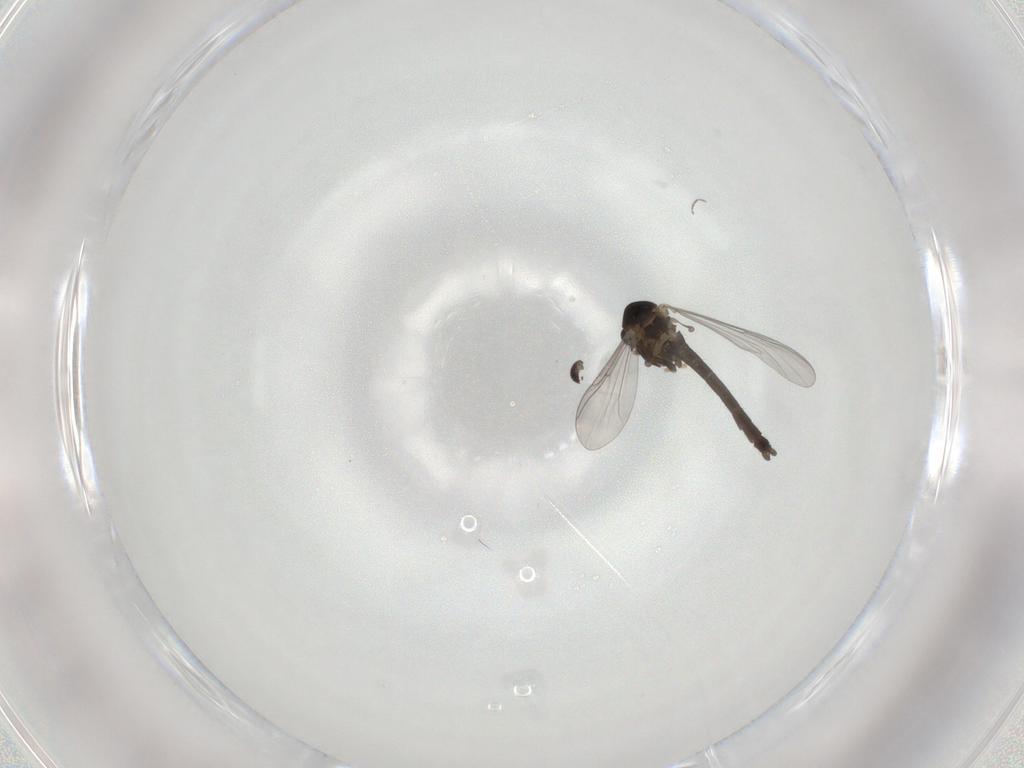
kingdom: Animalia
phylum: Arthropoda
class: Insecta
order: Diptera
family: Chironomidae
